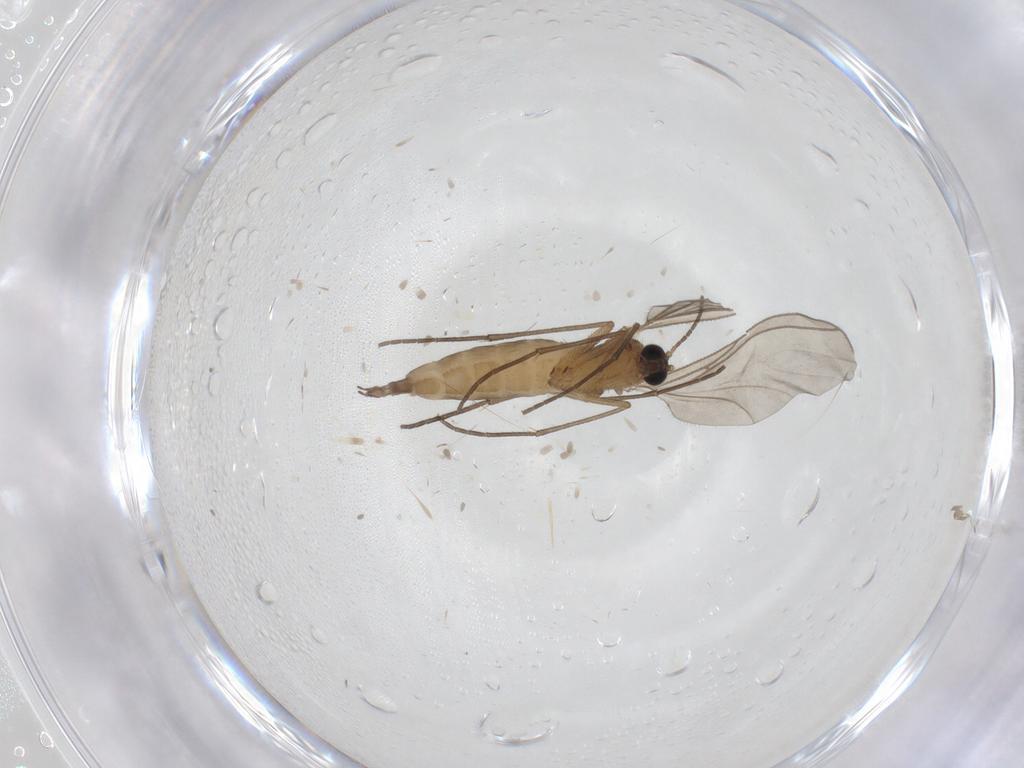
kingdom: Animalia
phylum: Arthropoda
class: Insecta
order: Diptera
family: Sciaridae
